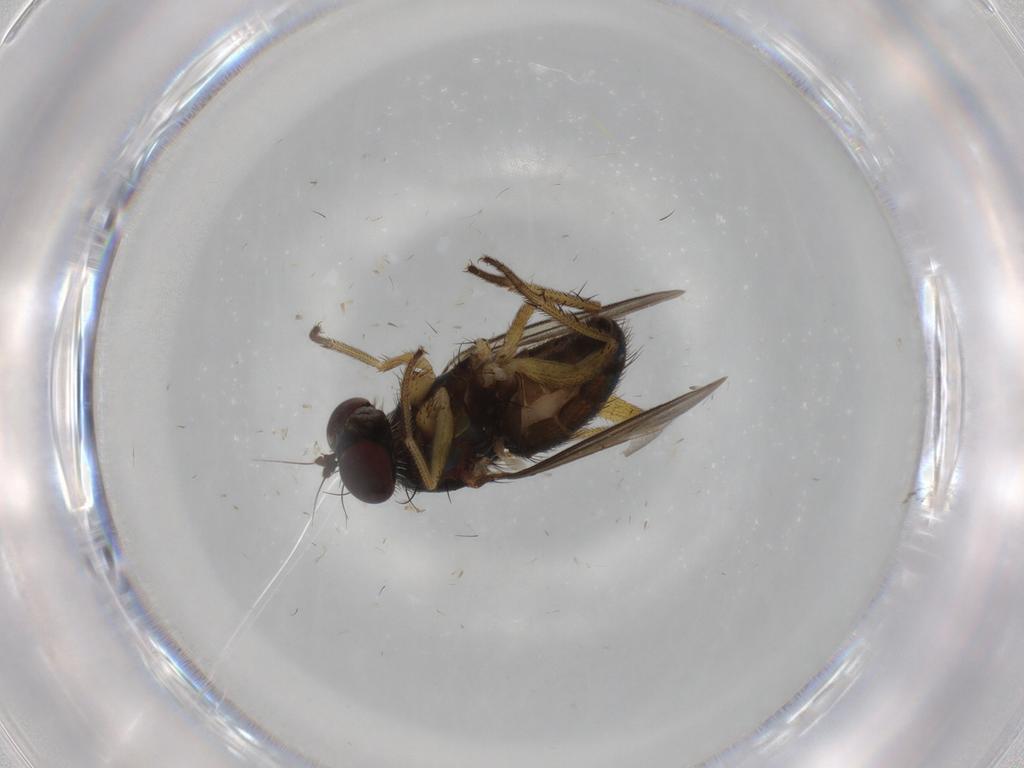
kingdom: Animalia
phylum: Arthropoda
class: Insecta
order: Diptera
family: Dolichopodidae
